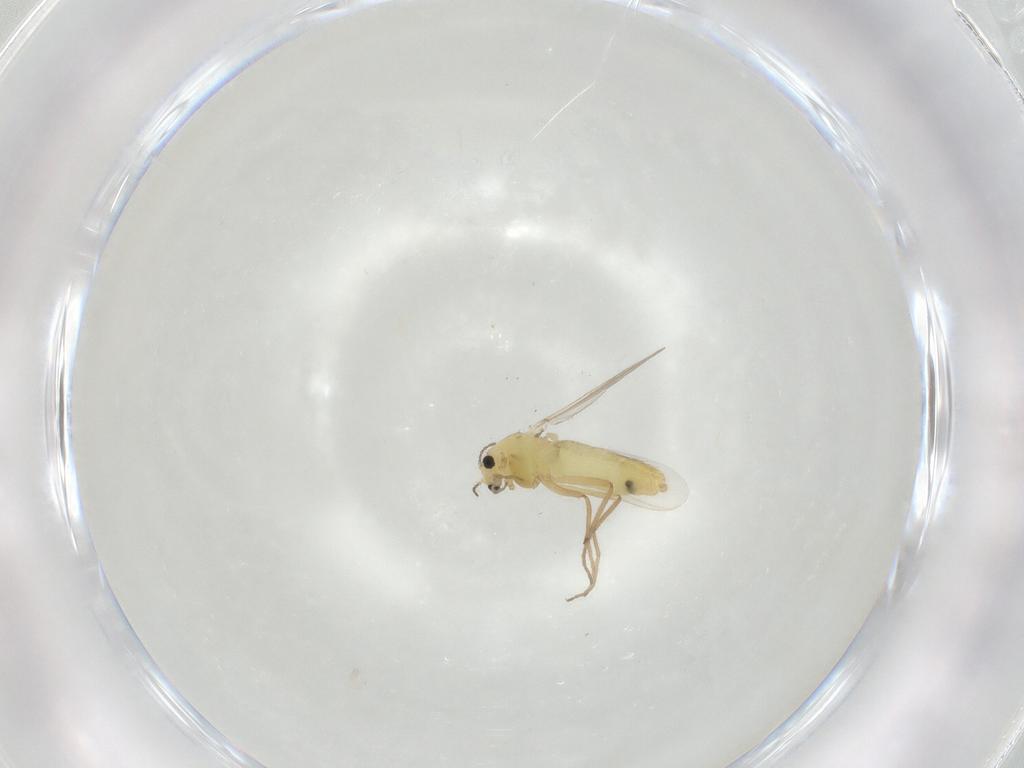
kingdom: Animalia
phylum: Arthropoda
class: Insecta
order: Diptera
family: Chironomidae
